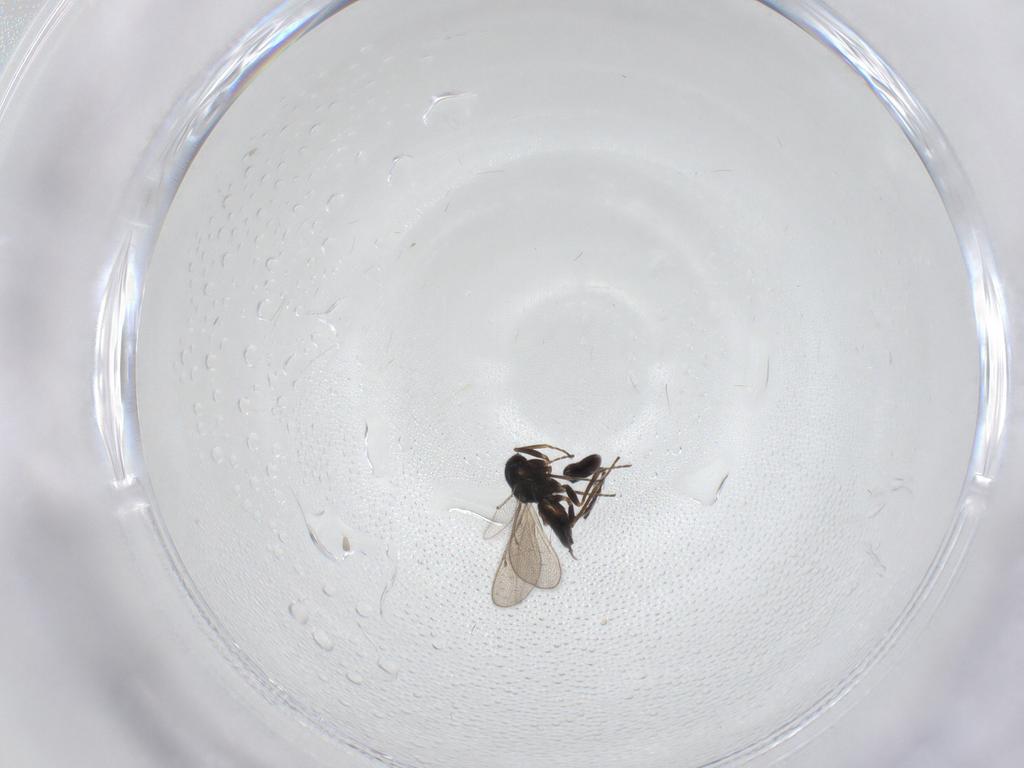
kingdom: Animalia
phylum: Arthropoda
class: Insecta
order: Hymenoptera
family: Eulophidae
